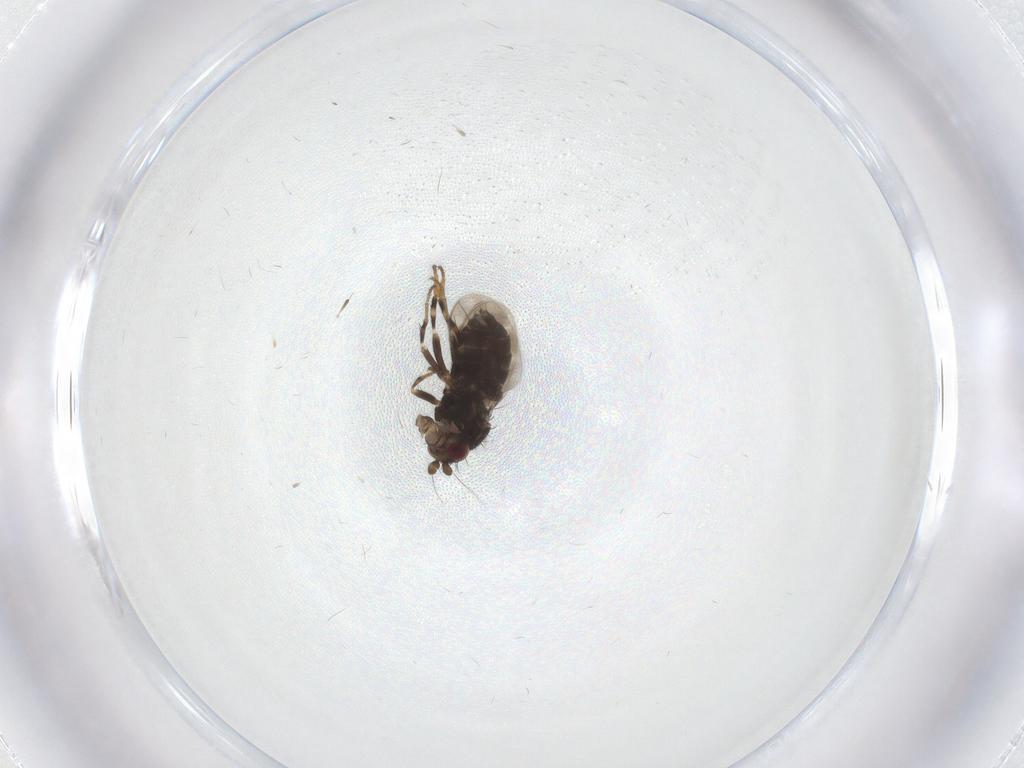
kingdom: Animalia
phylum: Arthropoda
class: Insecta
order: Diptera
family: Sphaeroceridae
